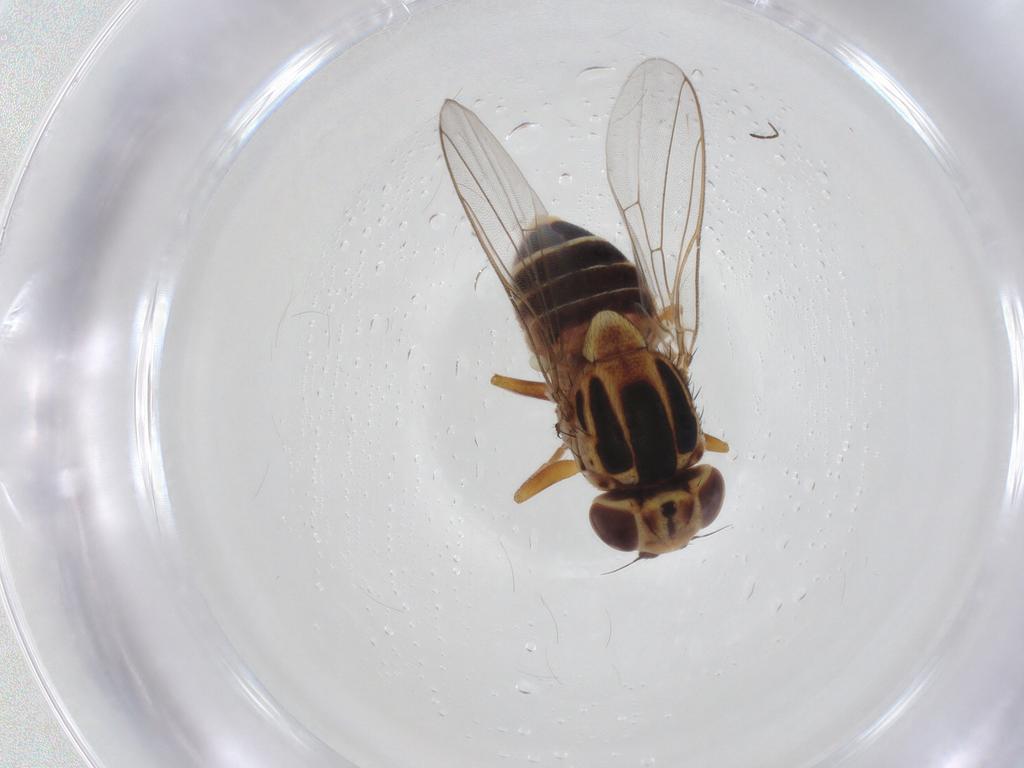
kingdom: Animalia
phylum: Arthropoda
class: Insecta
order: Diptera
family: Chloropidae
